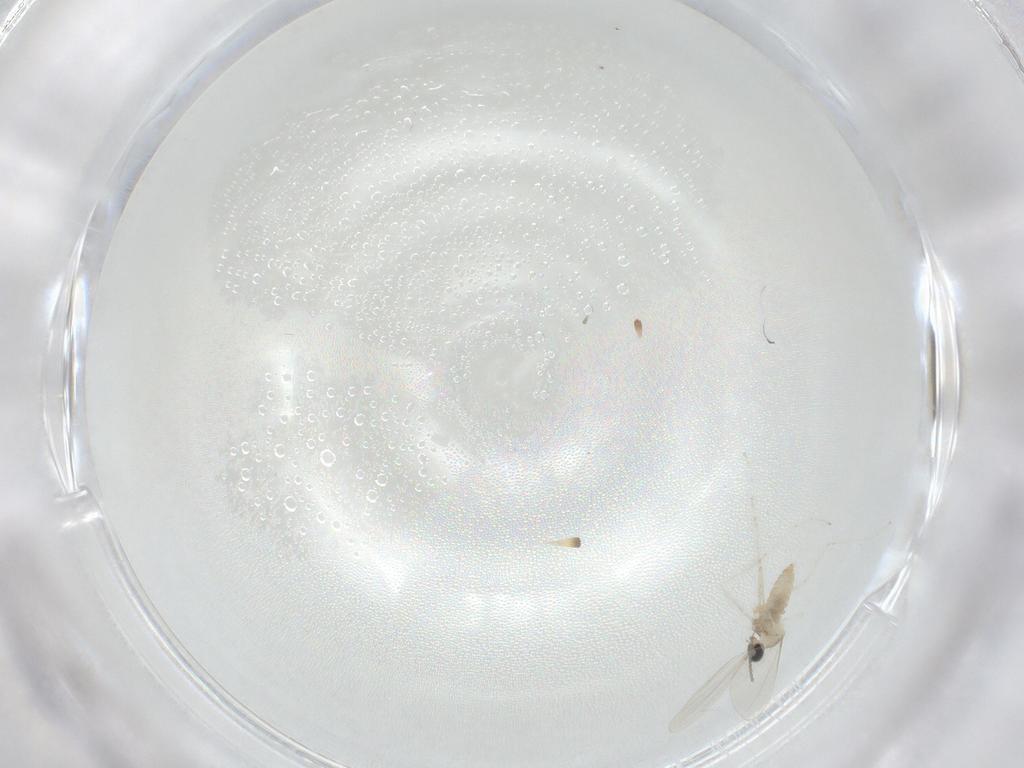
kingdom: Animalia
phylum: Arthropoda
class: Insecta
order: Diptera
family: Cecidomyiidae
